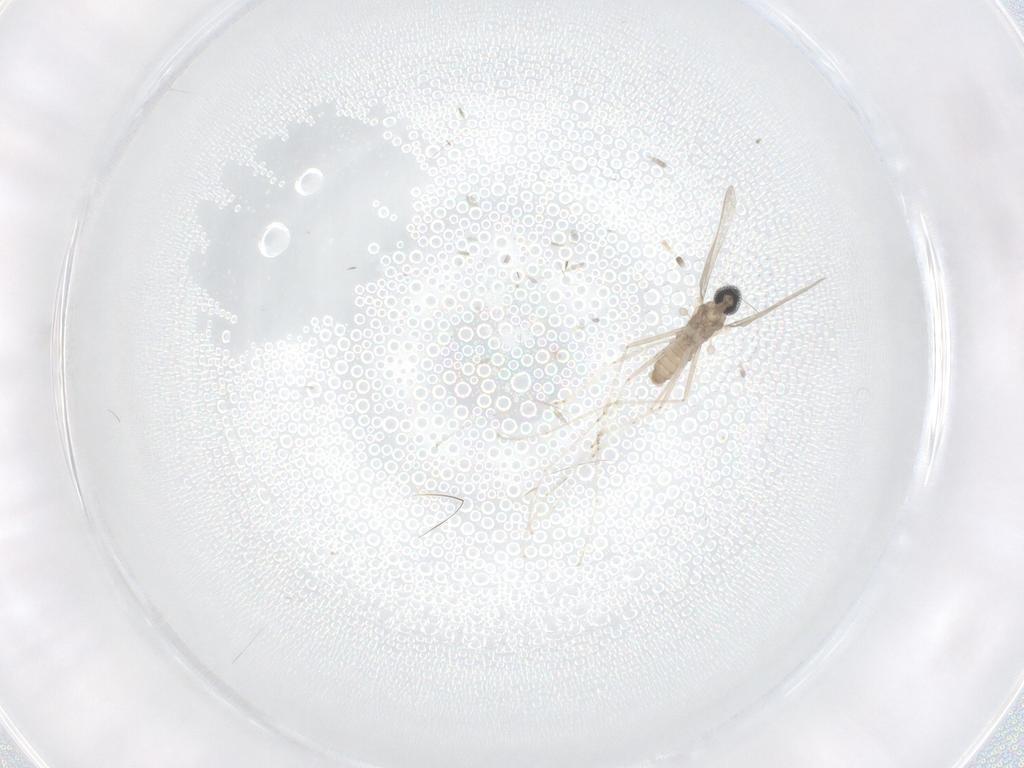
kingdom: Animalia
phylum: Arthropoda
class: Insecta
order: Diptera
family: Cecidomyiidae
